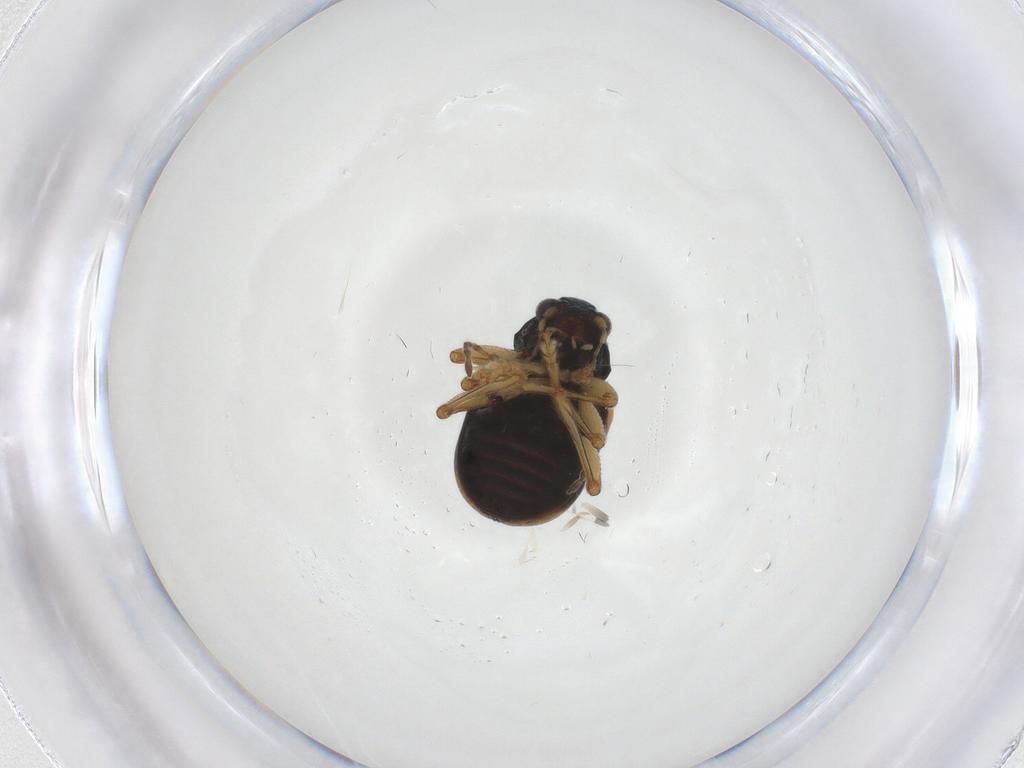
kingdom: Animalia
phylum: Arthropoda
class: Insecta
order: Coleoptera
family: Chrysomelidae
